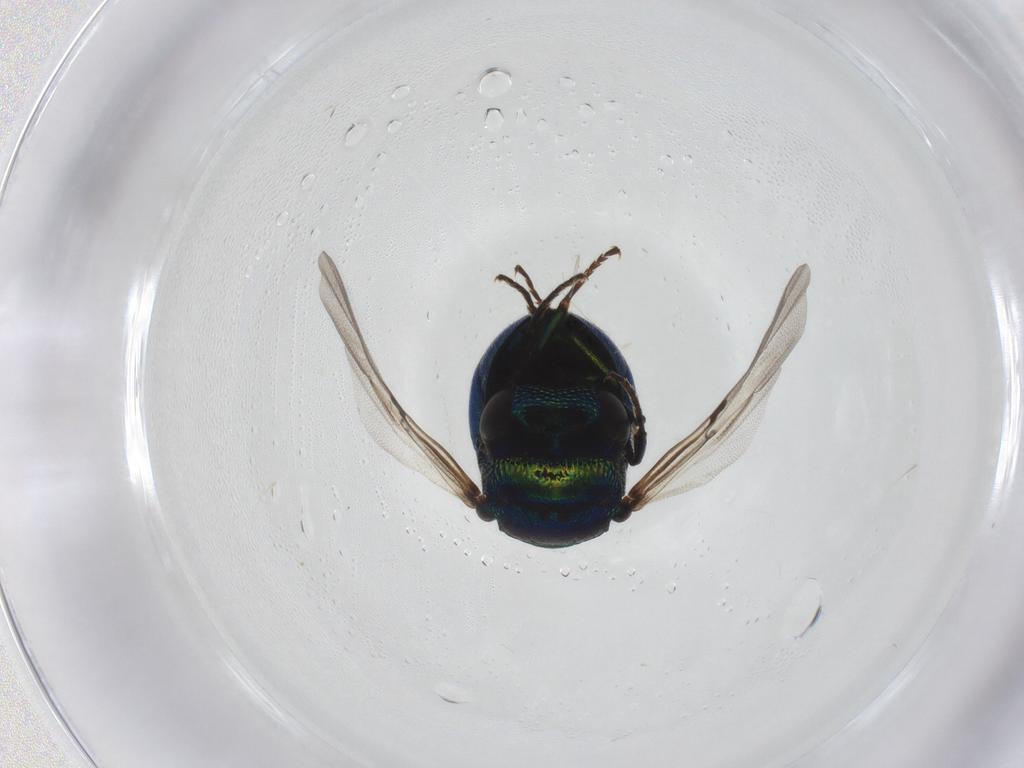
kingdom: Animalia
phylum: Arthropoda
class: Insecta
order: Hymenoptera
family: Chrysididae
